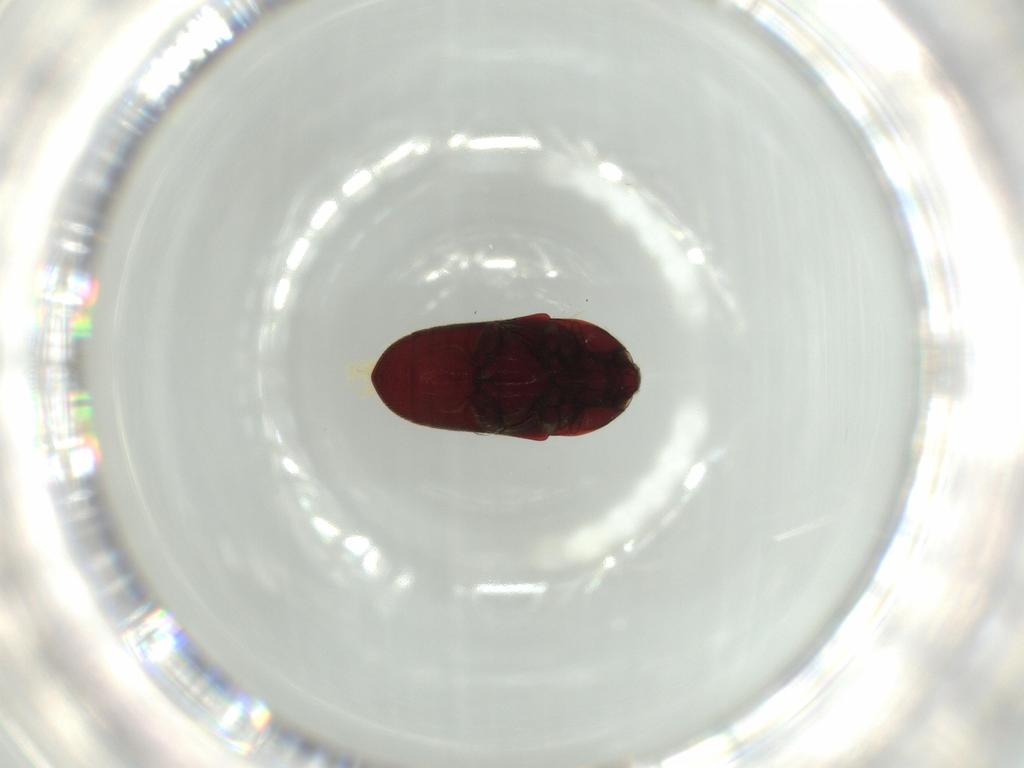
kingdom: Animalia
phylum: Arthropoda
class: Insecta
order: Coleoptera
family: Throscidae
